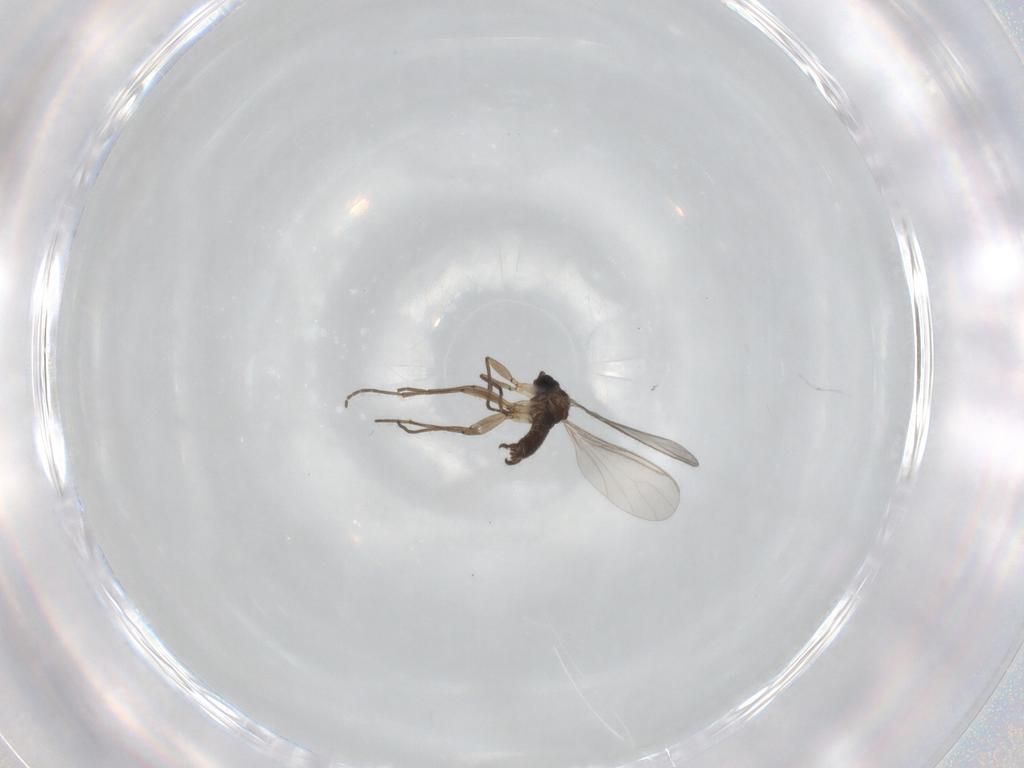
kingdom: Animalia
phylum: Arthropoda
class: Insecta
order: Diptera
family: Sciaridae
